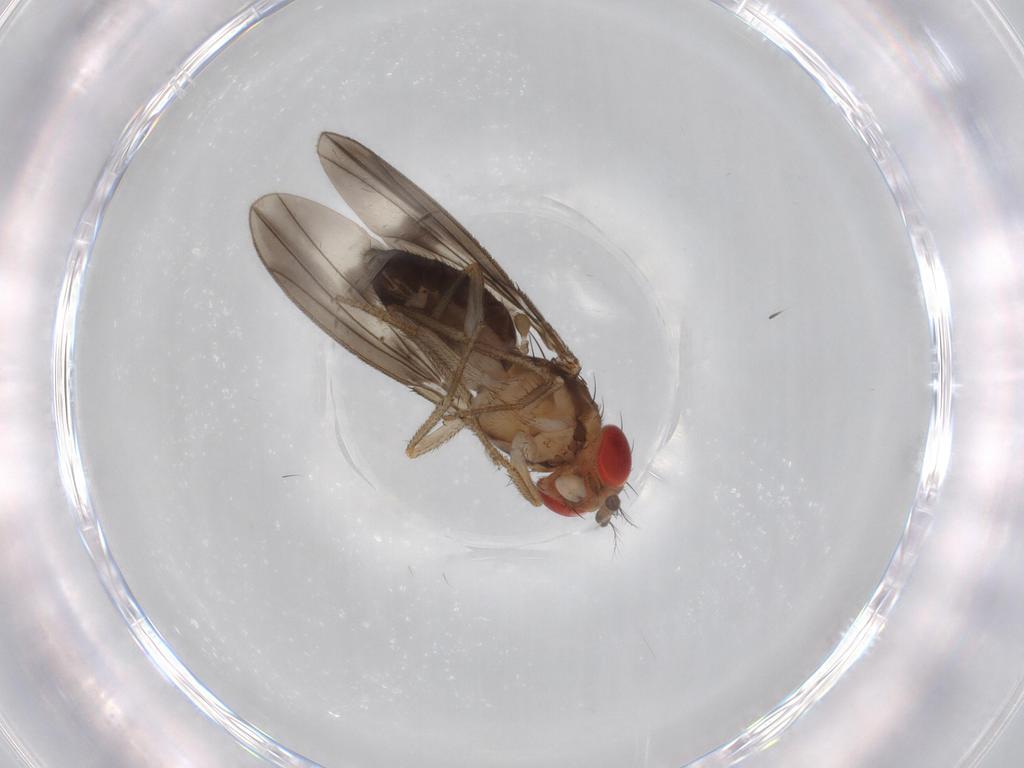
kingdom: Animalia
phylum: Arthropoda
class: Insecta
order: Diptera
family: Drosophilidae
